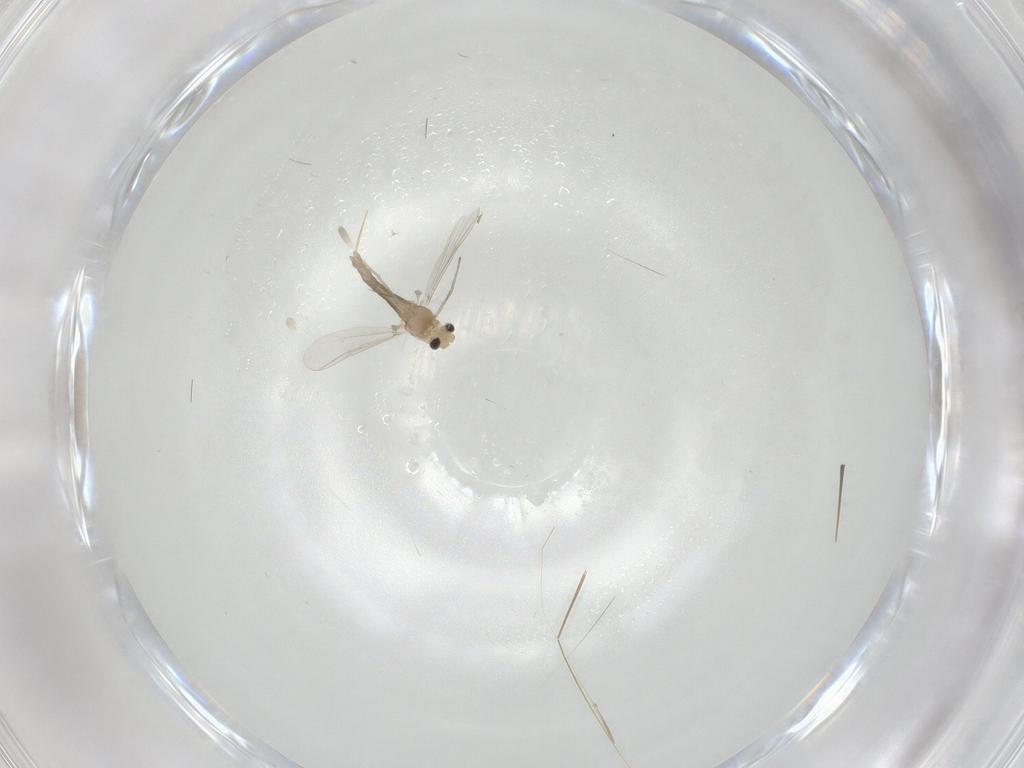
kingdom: Animalia
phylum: Arthropoda
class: Insecta
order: Diptera
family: Chironomidae
